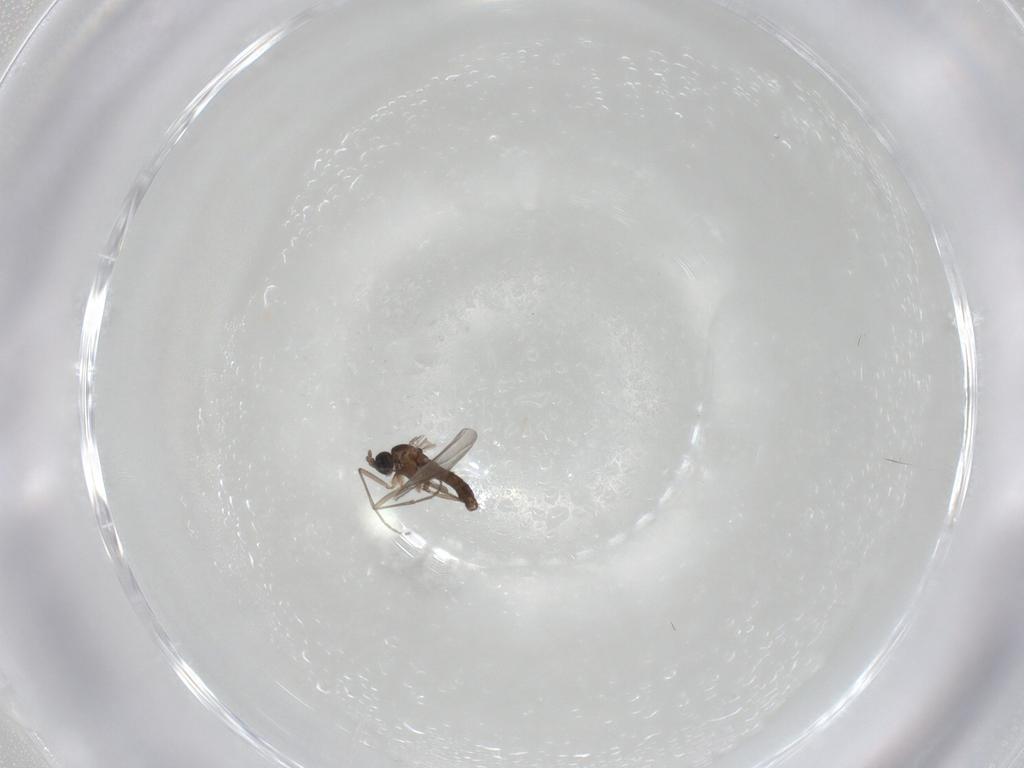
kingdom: Animalia
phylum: Arthropoda
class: Insecta
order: Diptera
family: Sciaridae
